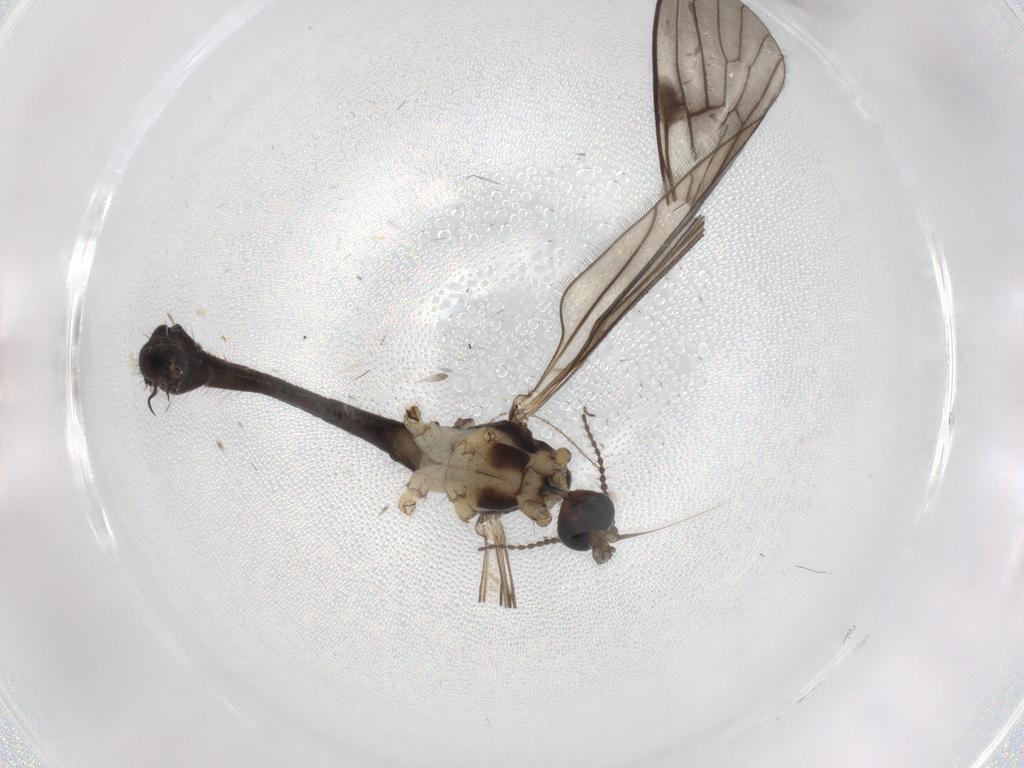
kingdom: Animalia
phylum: Arthropoda
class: Insecta
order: Diptera
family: Limoniidae
